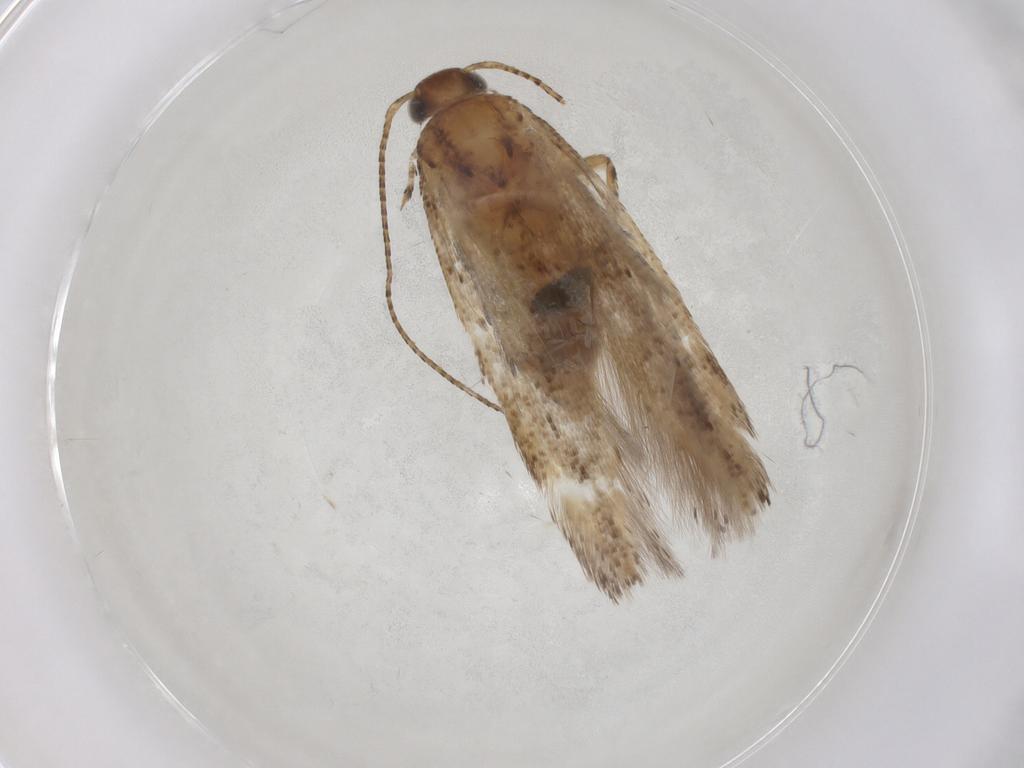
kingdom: Animalia
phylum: Arthropoda
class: Insecta
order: Lepidoptera
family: Gelechiidae
